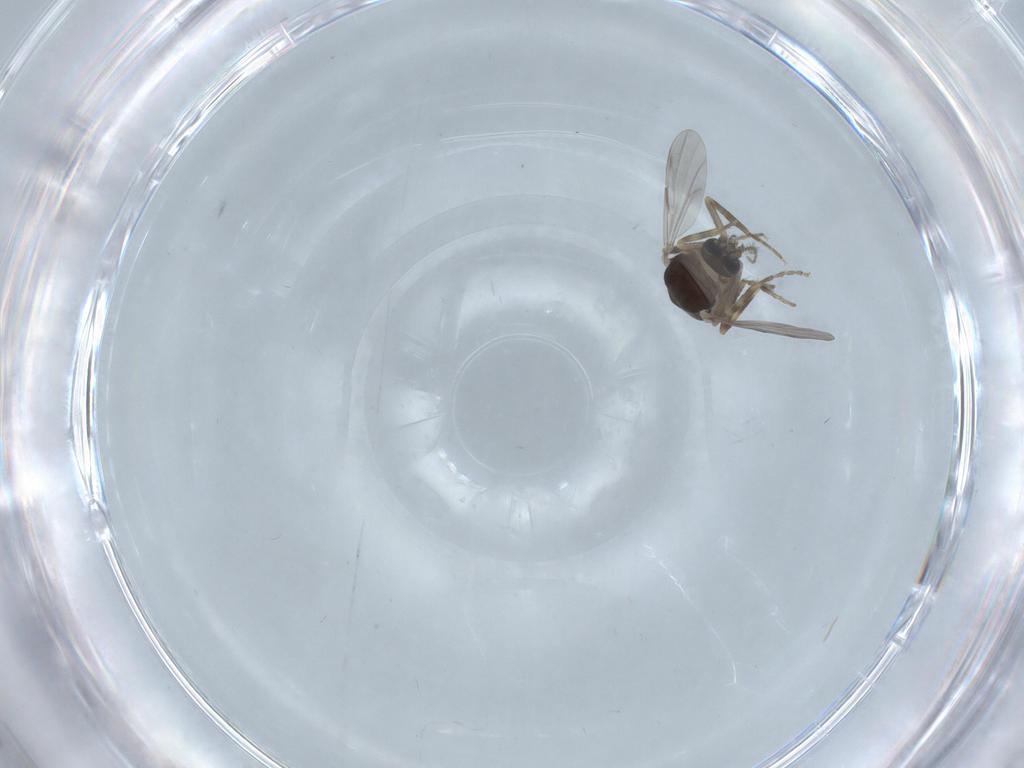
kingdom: Animalia
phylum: Arthropoda
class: Insecta
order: Diptera
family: Ceratopogonidae
